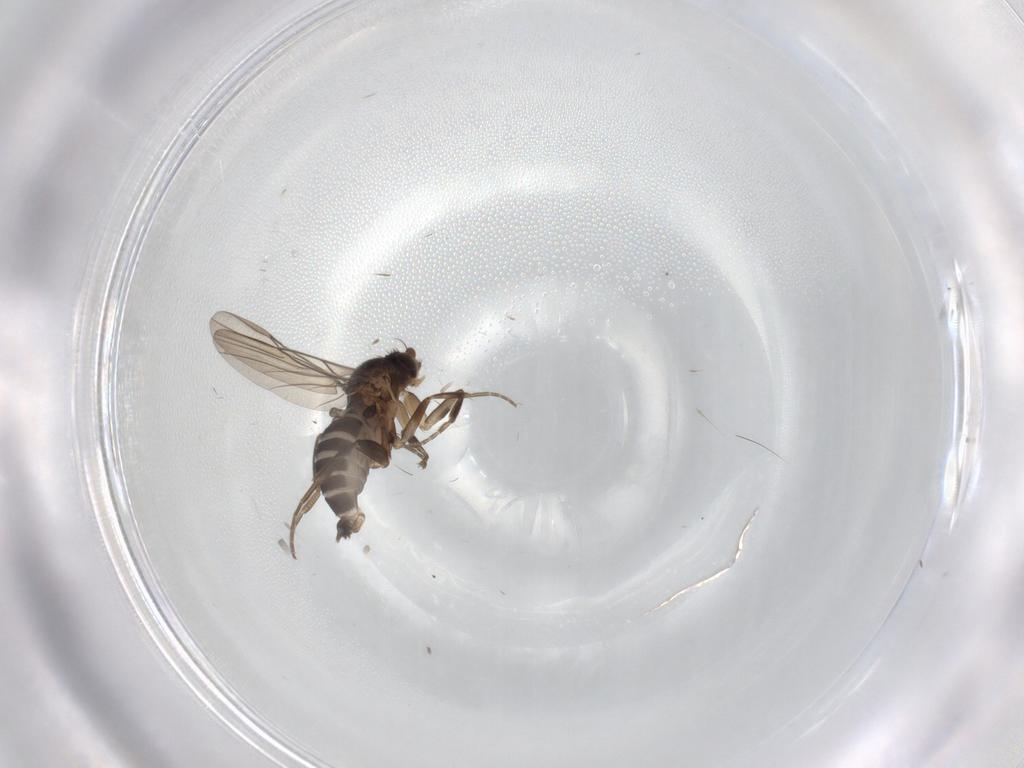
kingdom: Animalia
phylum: Arthropoda
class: Insecta
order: Diptera
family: Phoridae
